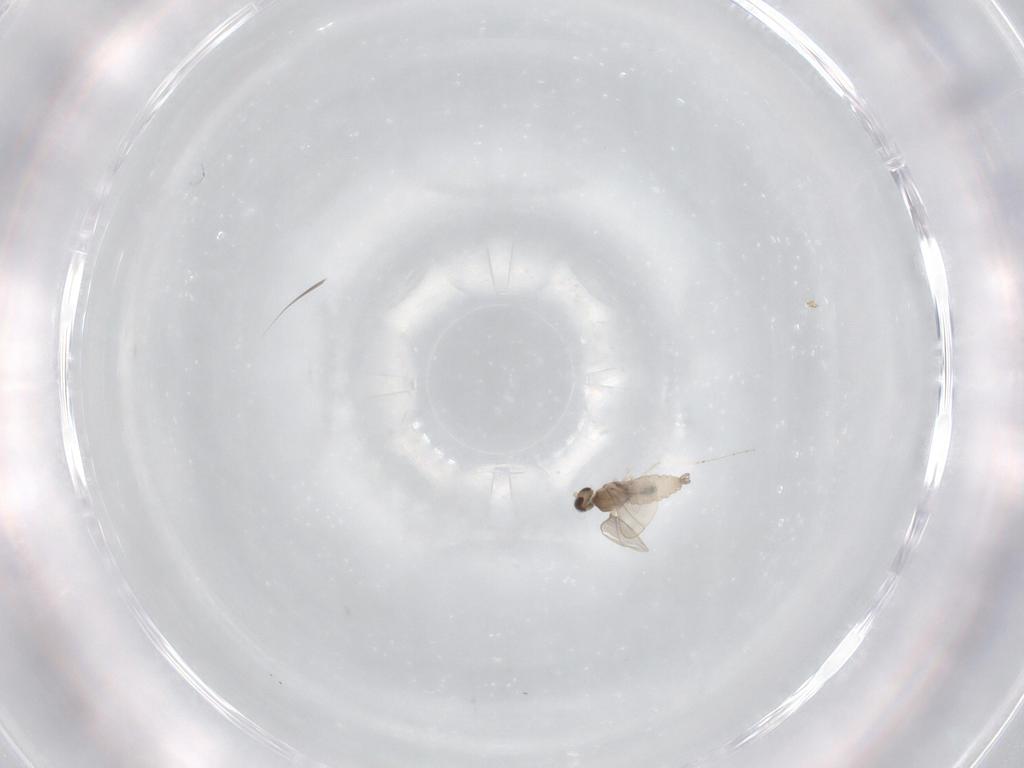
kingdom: Animalia
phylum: Arthropoda
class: Insecta
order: Diptera
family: Cecidomyiidae
